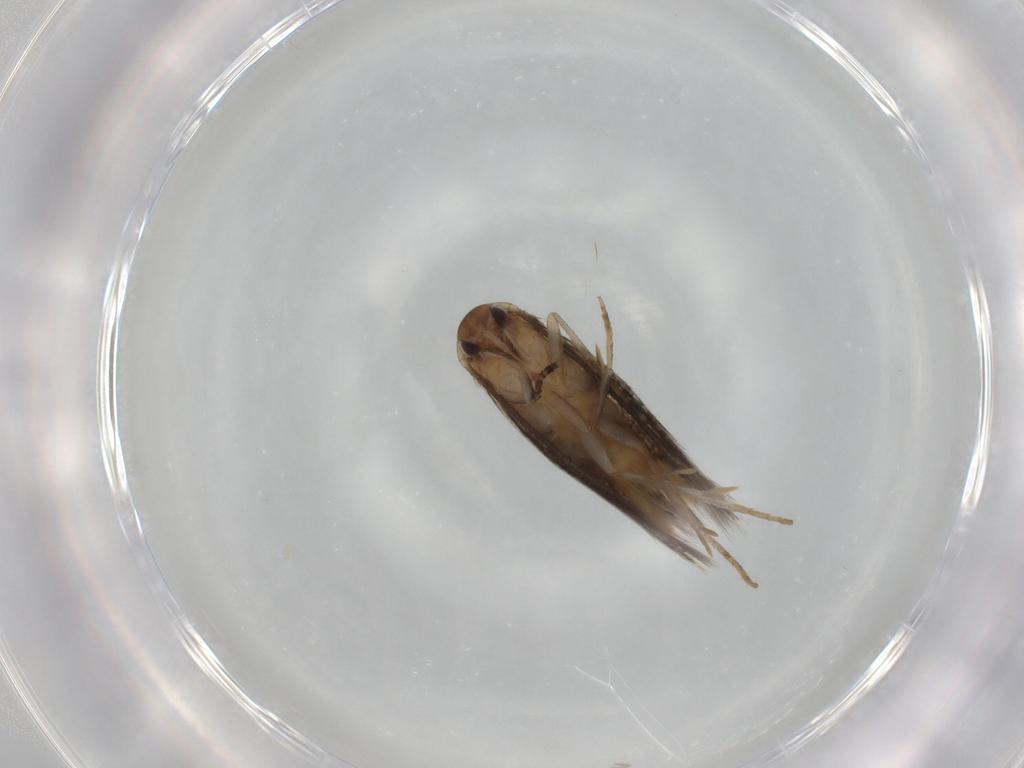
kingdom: Animalia
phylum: Arthropoda
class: Insecta
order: Lepidoptera
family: Elachistidae
